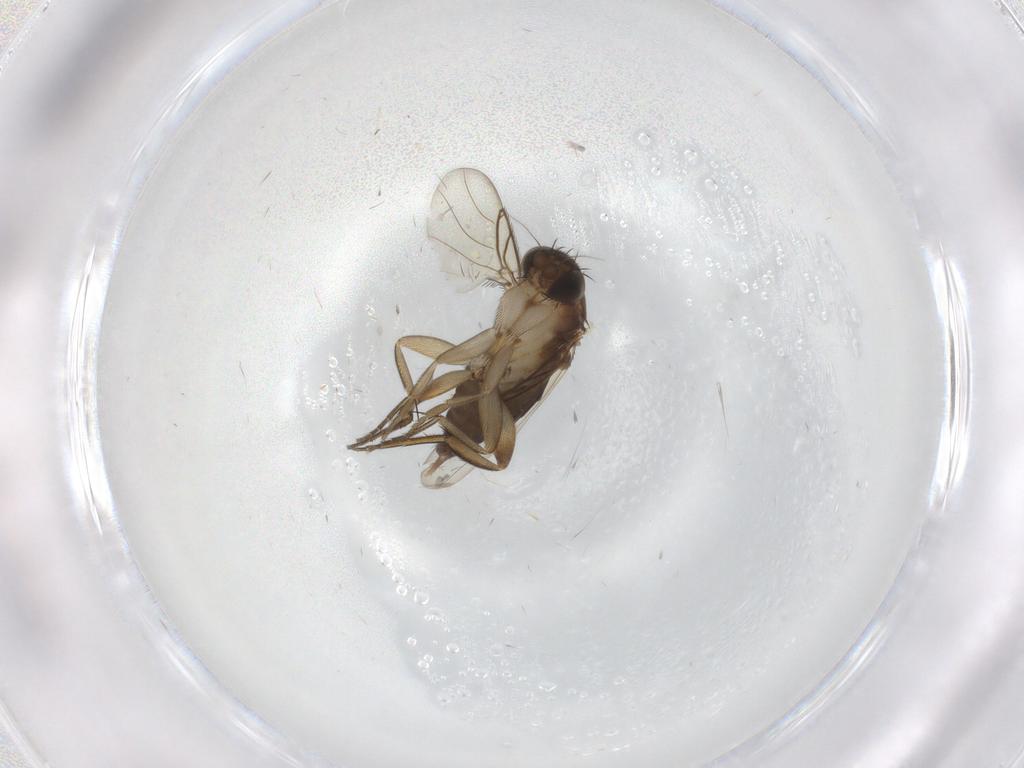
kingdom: Animalia
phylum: Arthropoda
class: Insecta
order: Diptera
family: Phoridae
